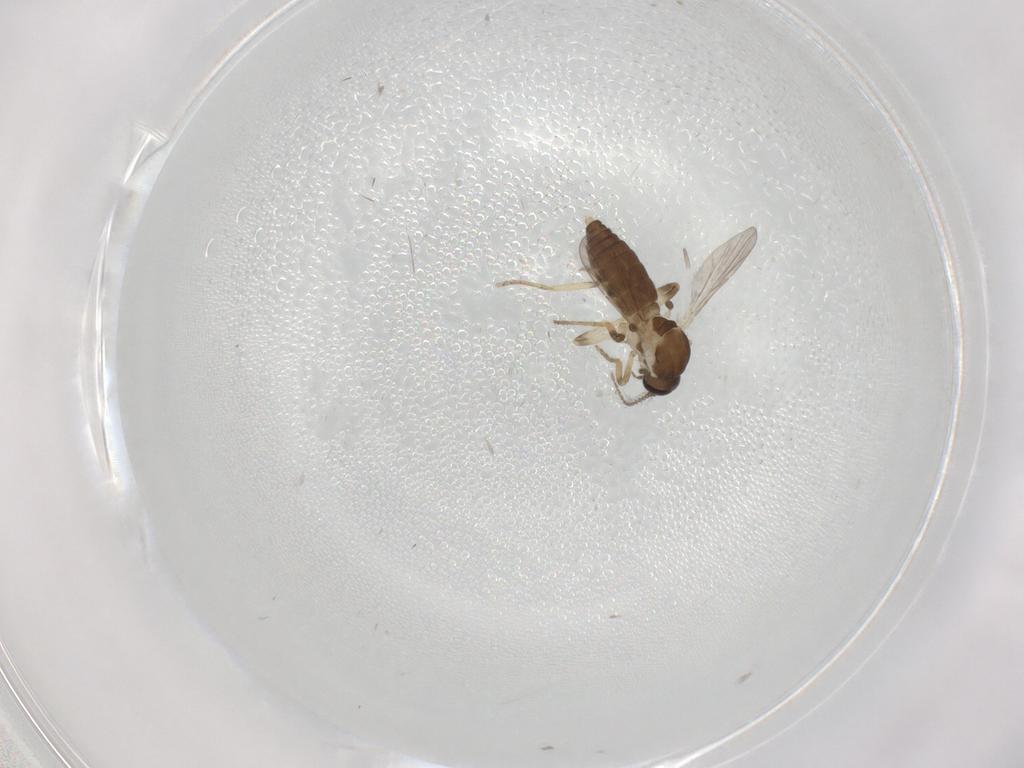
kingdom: Animalia
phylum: Arthropoda
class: Insecta
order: Diptera
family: Ceratopogonidae
